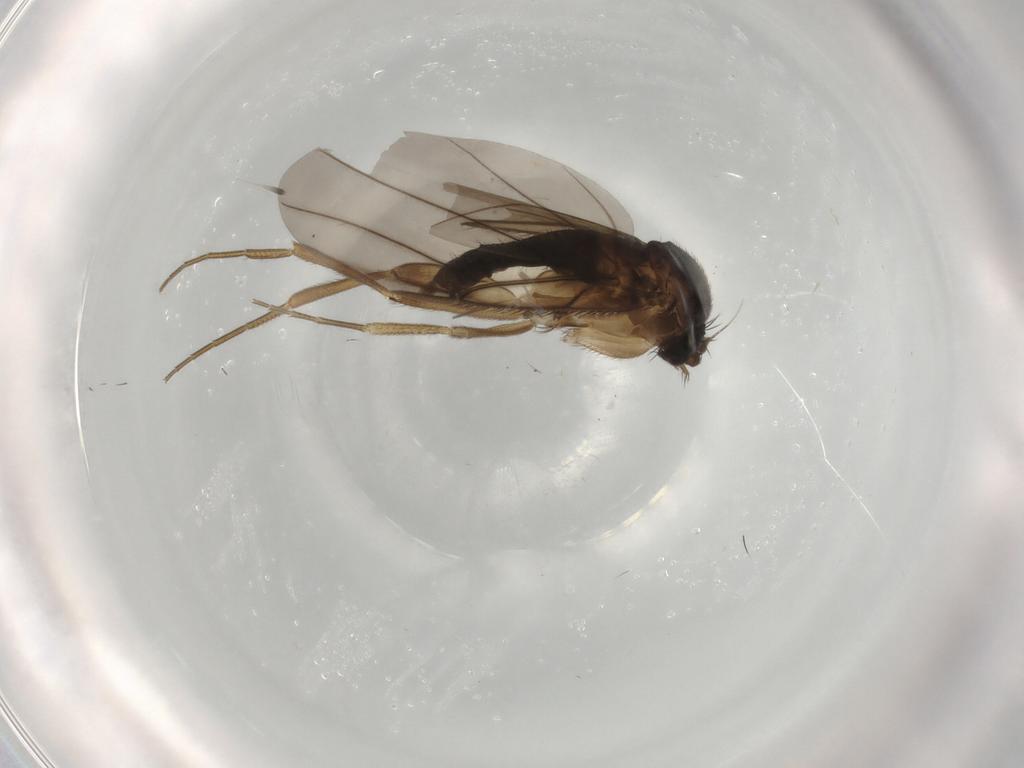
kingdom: Animalia
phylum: Arthropoda
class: Insecta
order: Diptera
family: Phoridae
